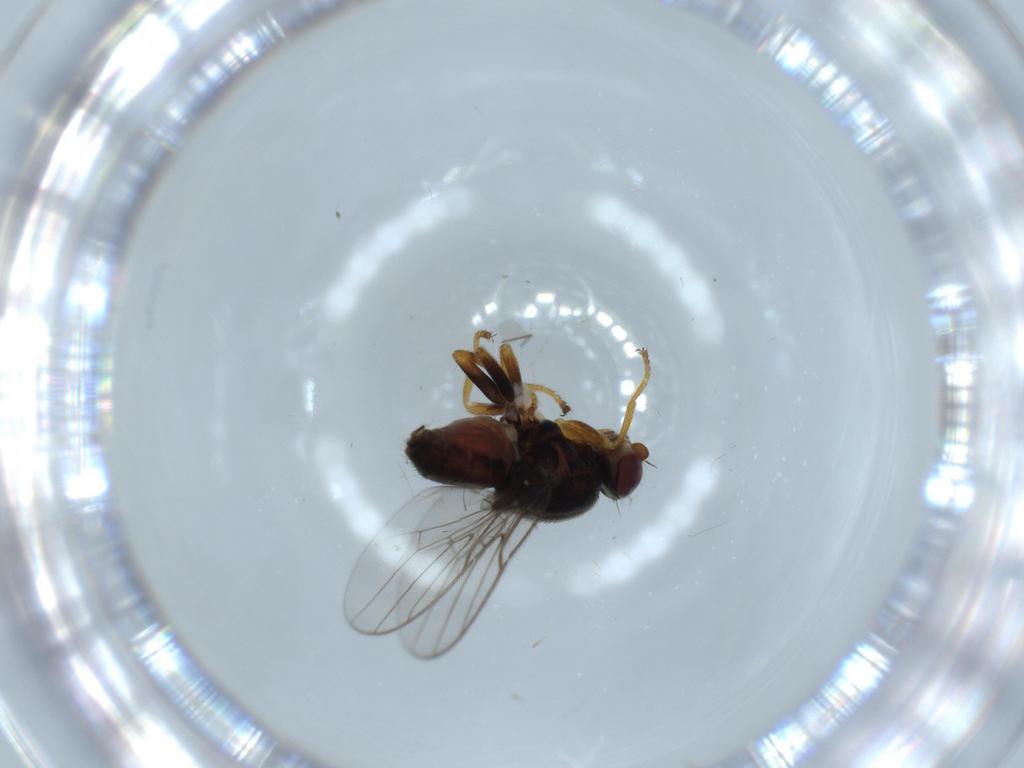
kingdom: Animalia
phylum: Arthropoda
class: Insecta
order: Diptera
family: Chloropidae
